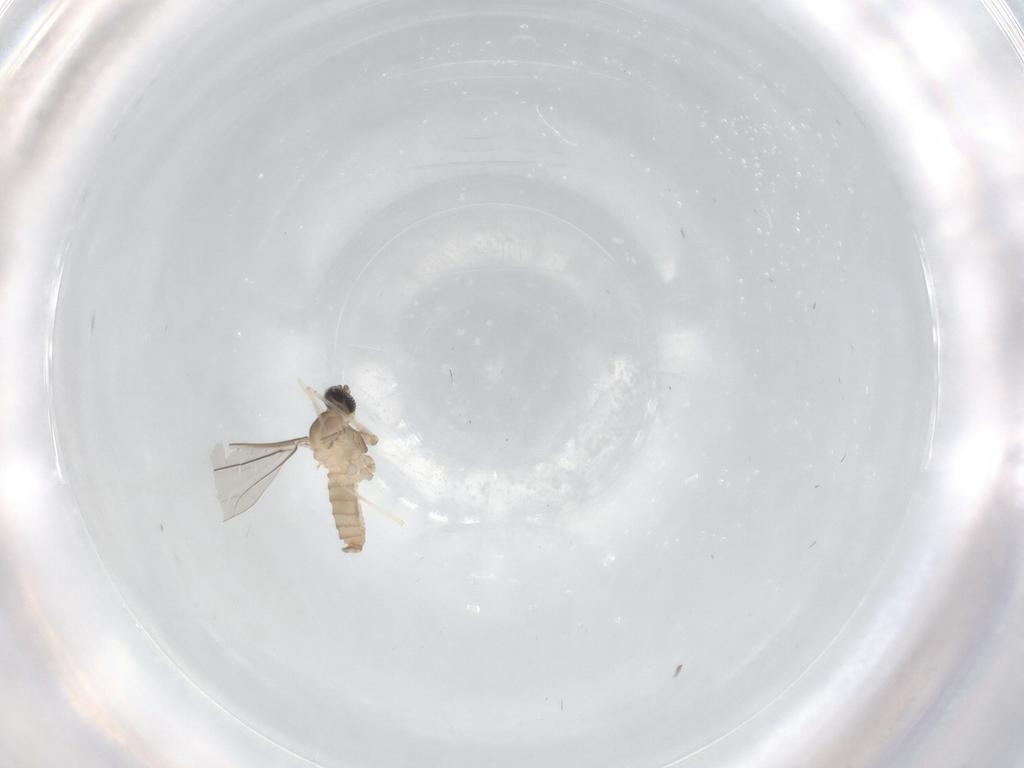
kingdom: Animalia
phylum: Arthropoda
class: Insecta
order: Diptera
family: Cecidomyiidae
